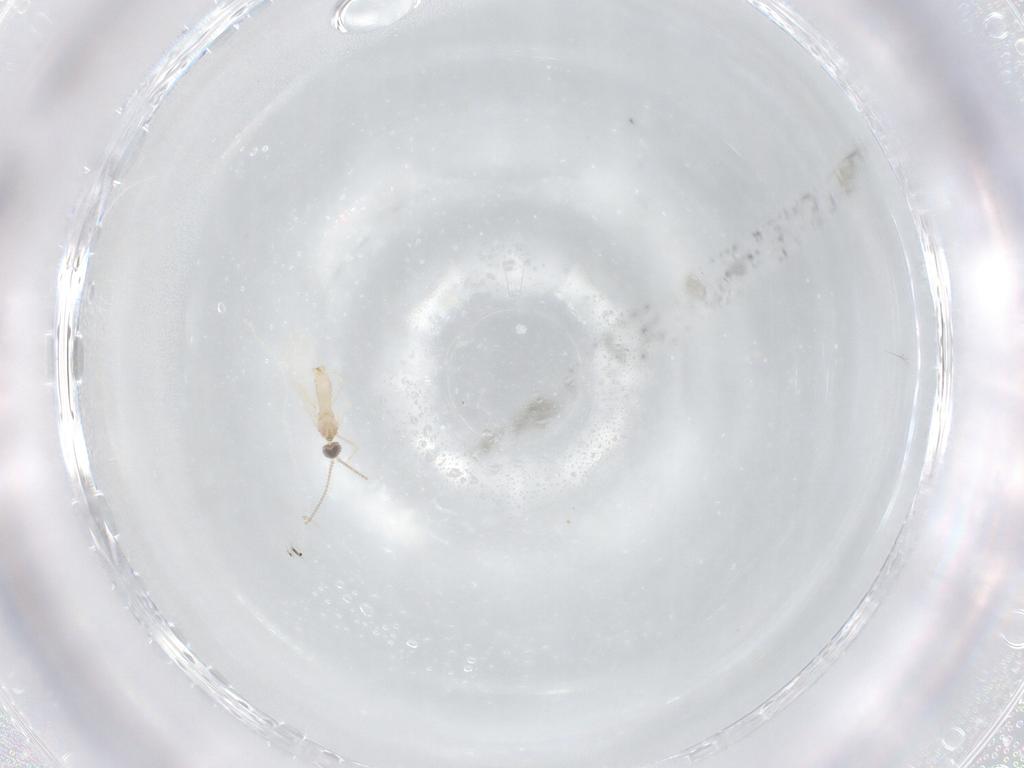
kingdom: Animalia
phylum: Arthropoda
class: Insecta
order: Diptera
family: Cecidomyiidae
